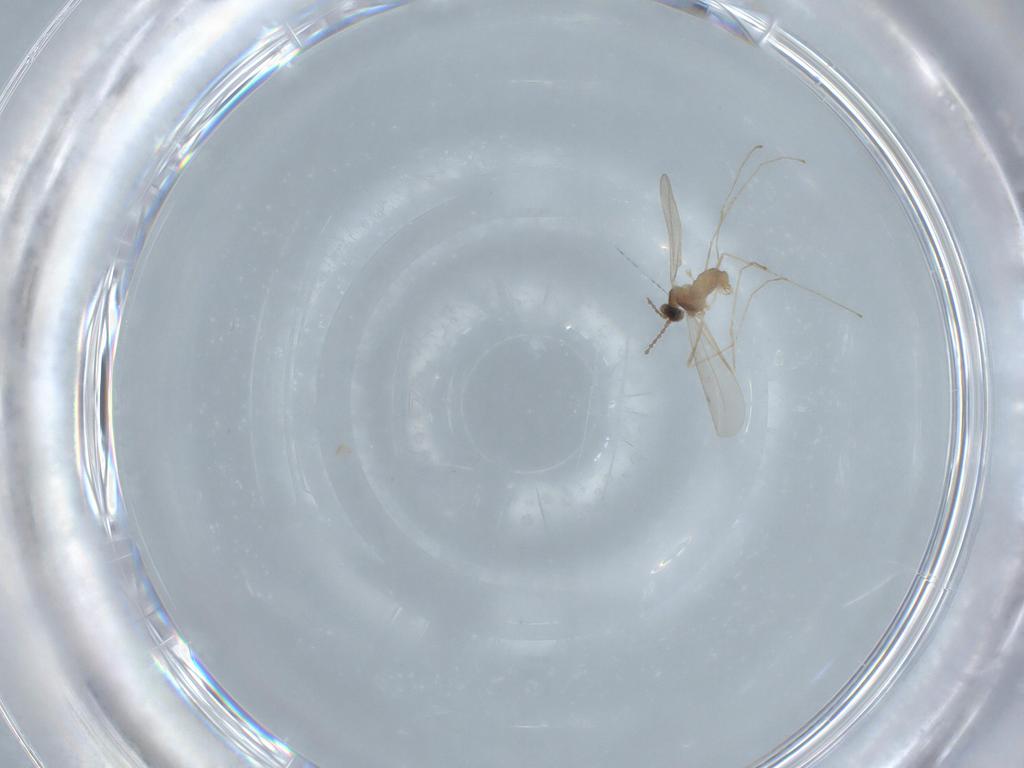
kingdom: Animalia
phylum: Arthropoda
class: Insecta
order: Diptera
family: Cecidomyiidae
